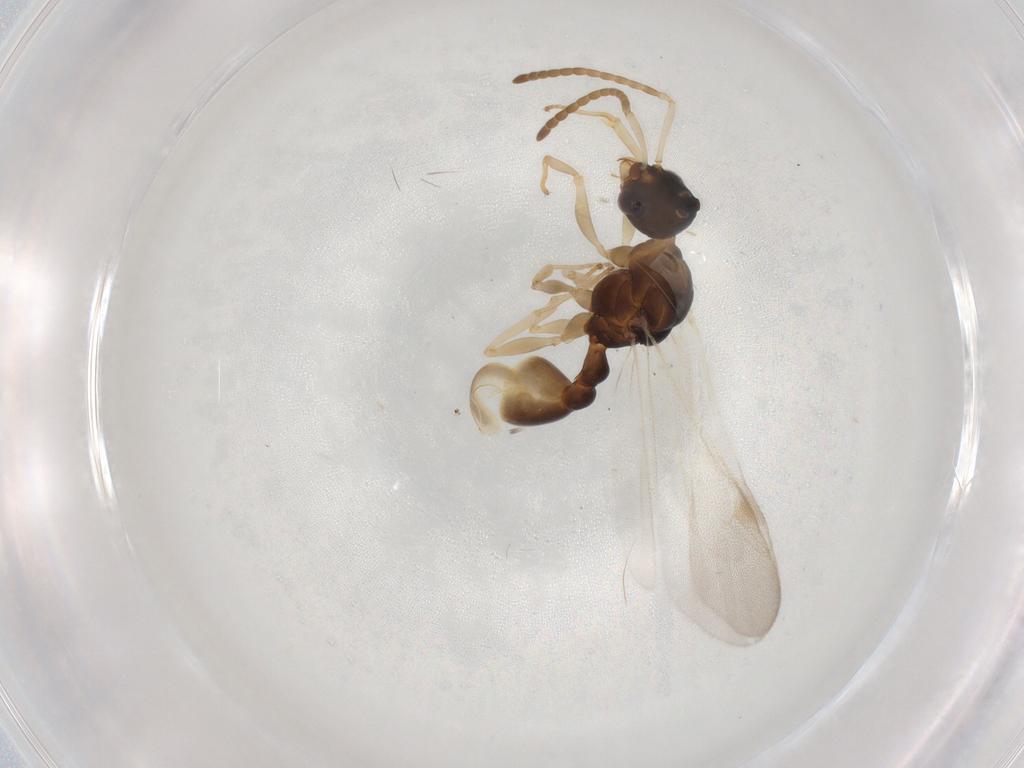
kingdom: Animalia
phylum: Arthropoda
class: Insecta
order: Hymenoptera
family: Formicidae
